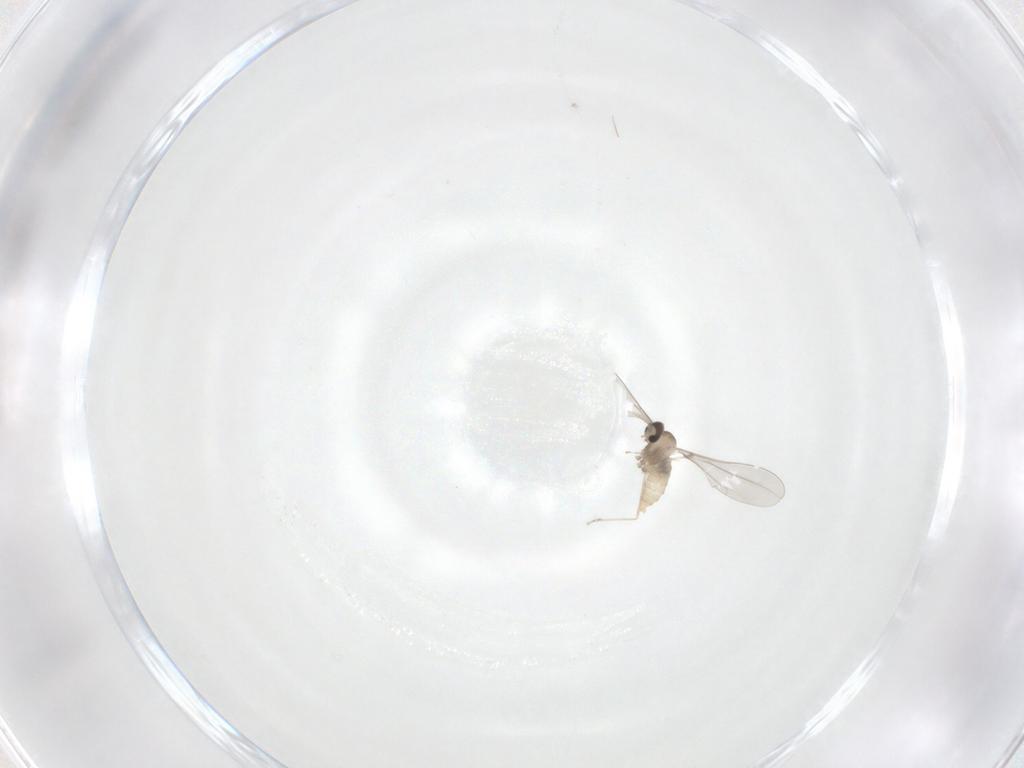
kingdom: Animalia
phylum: Arthropoda
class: Insecta
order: Diptera
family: Cecidomyiidae
